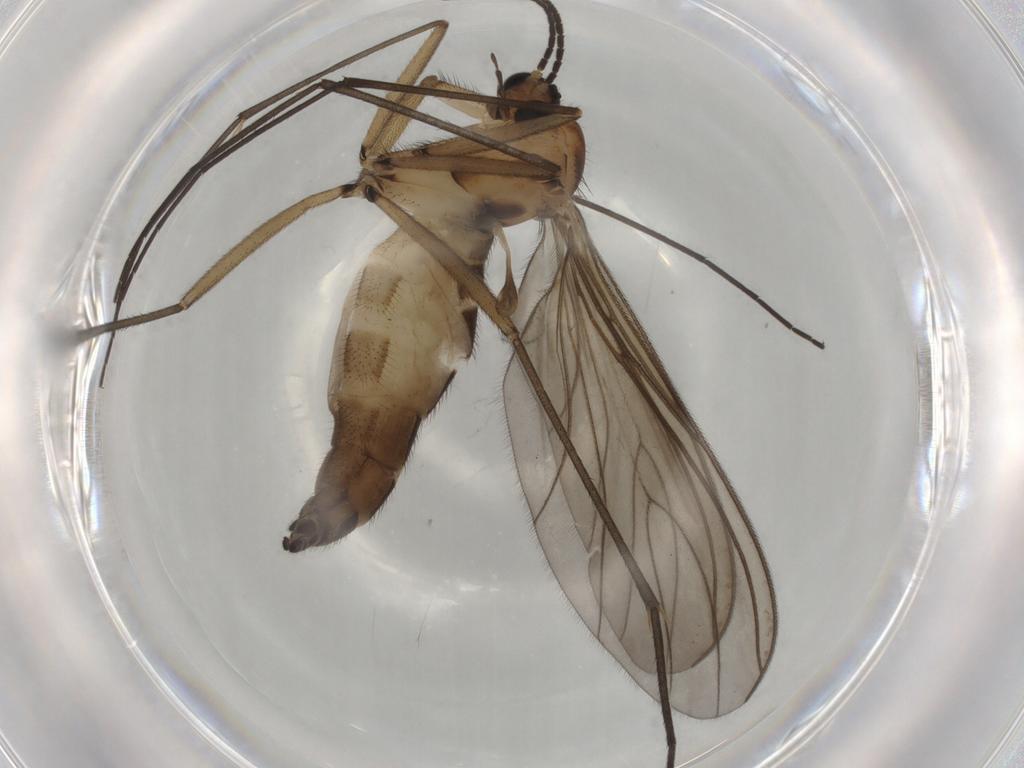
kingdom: Animalia
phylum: Arthropoda
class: Insecta
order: Diptera
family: Sciaridae
